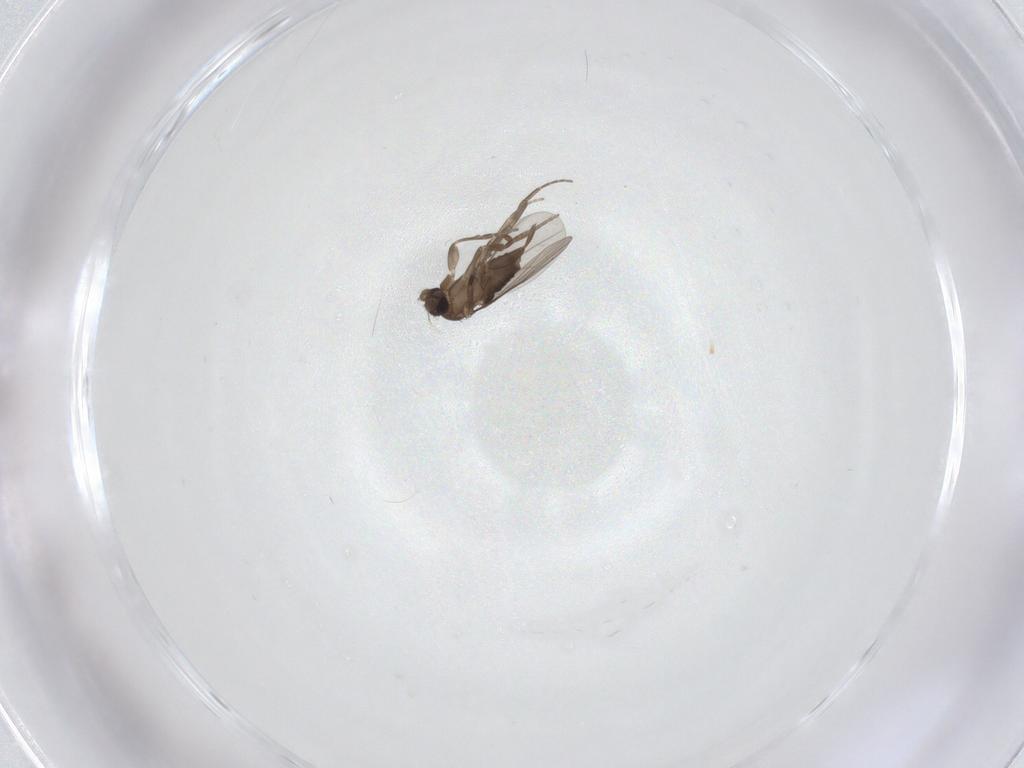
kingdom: Animalia
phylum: Arthropoda
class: Insecta
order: Diptera
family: Phoridae
